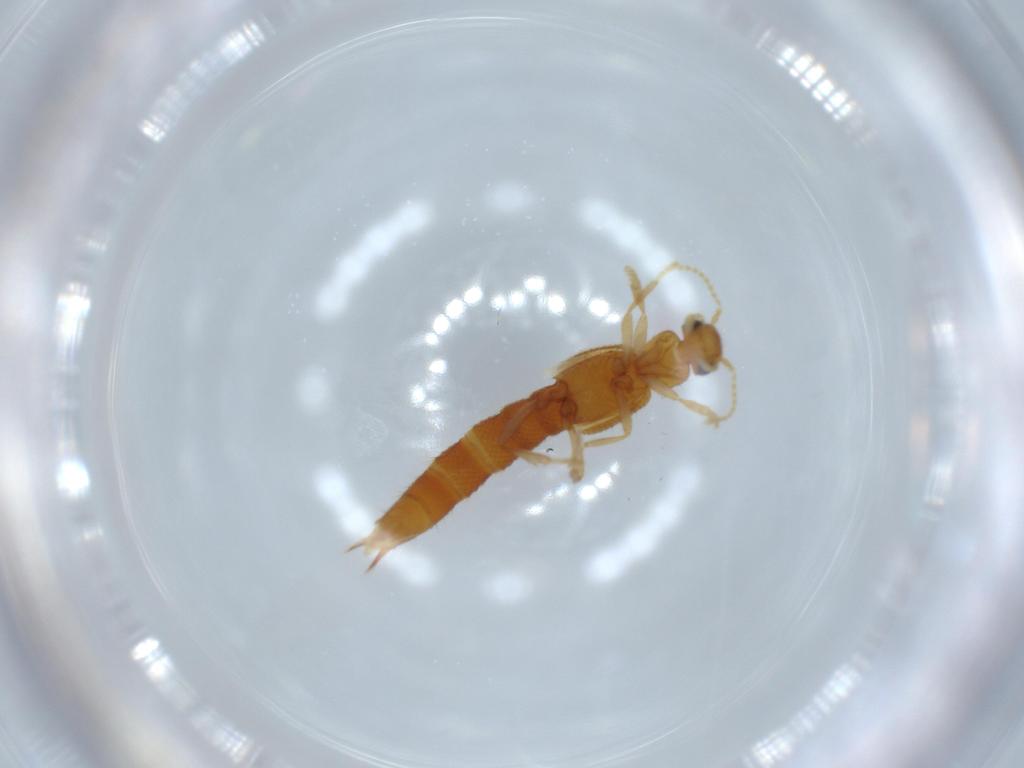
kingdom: Animalia
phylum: Arthropoda
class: Insecta
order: Coleoptera
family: Staphylinidae
